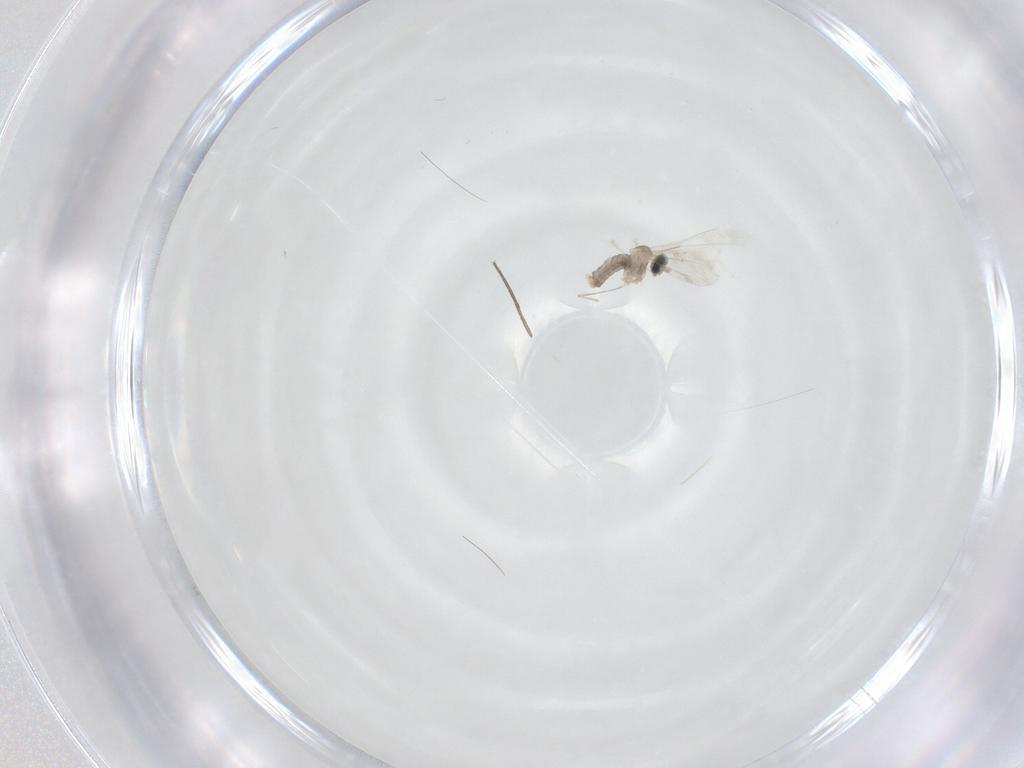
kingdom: Animalia
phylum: Arthropoda
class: Insecta
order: Diptera
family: Cecidomyiidae
